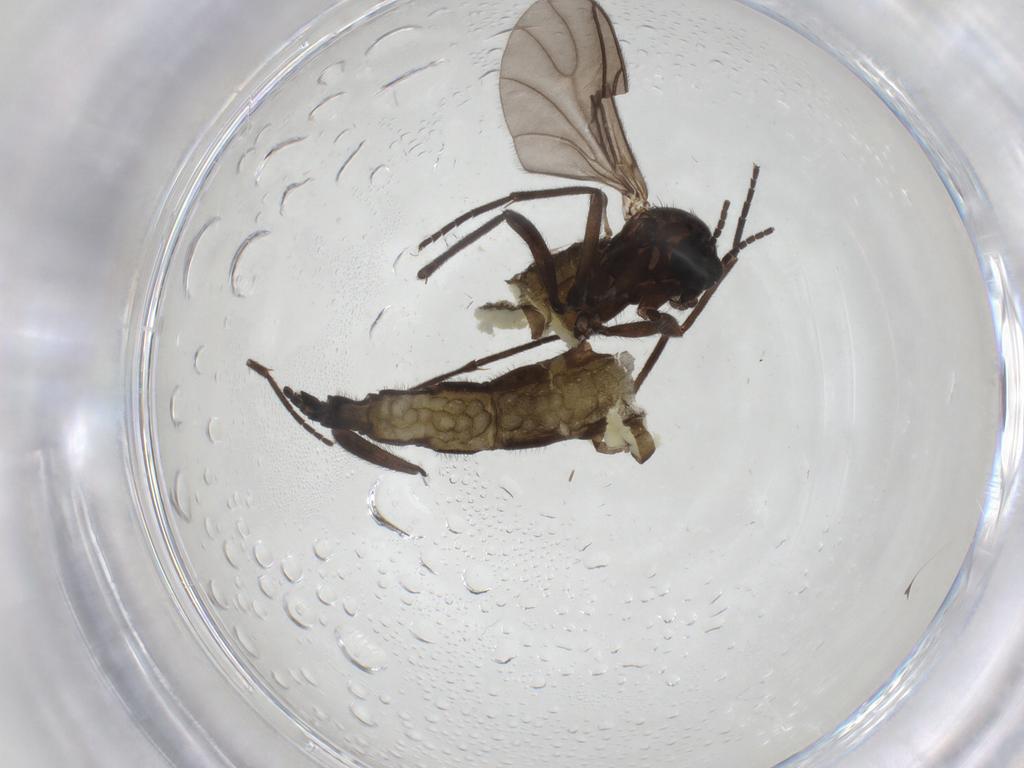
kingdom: Animalia
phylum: Arthropoda
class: Insecta
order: Diptera
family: Sciaridae
